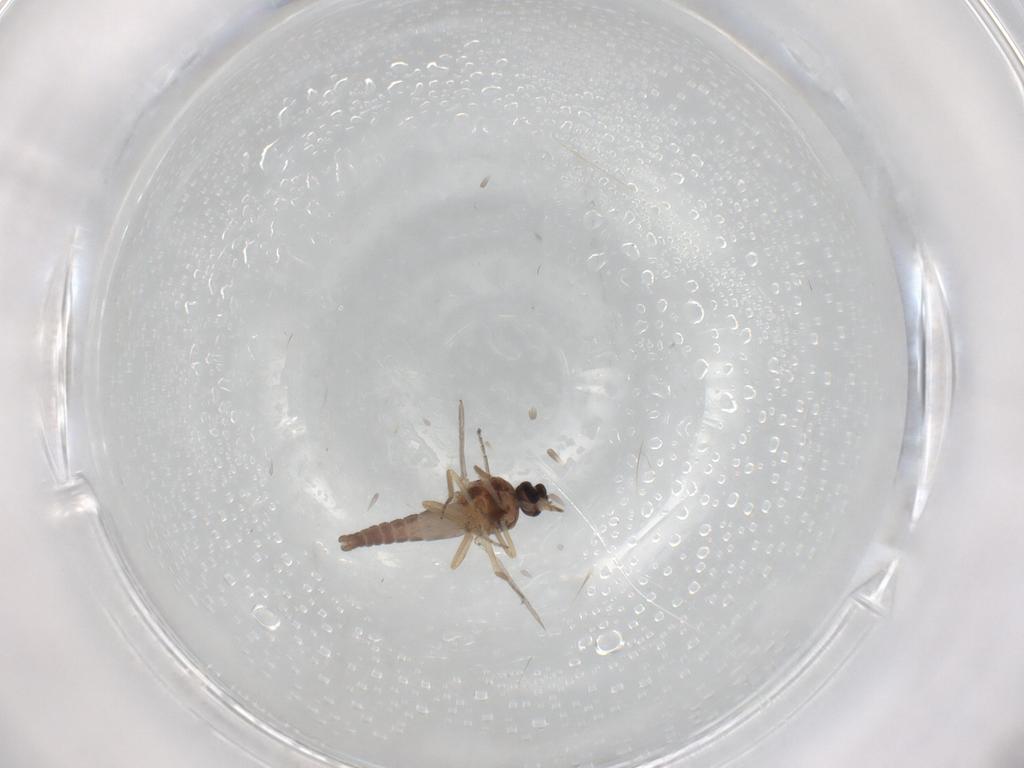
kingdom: Animalia
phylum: Arthropoda
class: Insecta
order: Diptera
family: Ceratopogonidae
